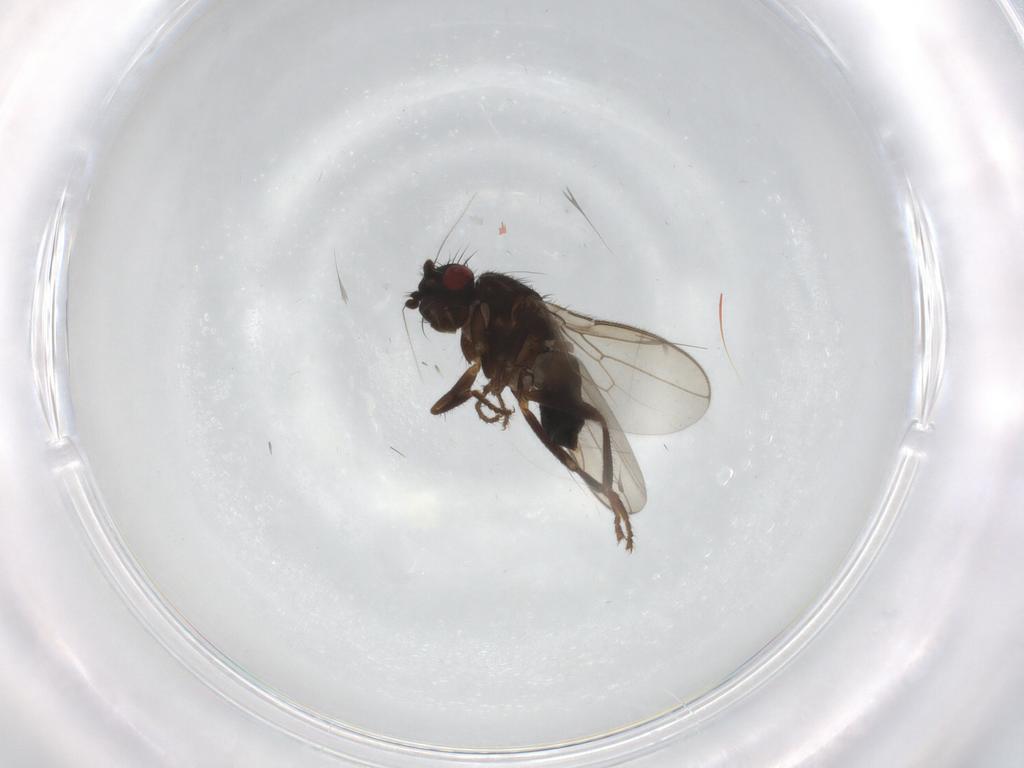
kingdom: Animalia
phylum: Arthropoda
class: Insecta
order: Diptera
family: Sphaeroceridae
